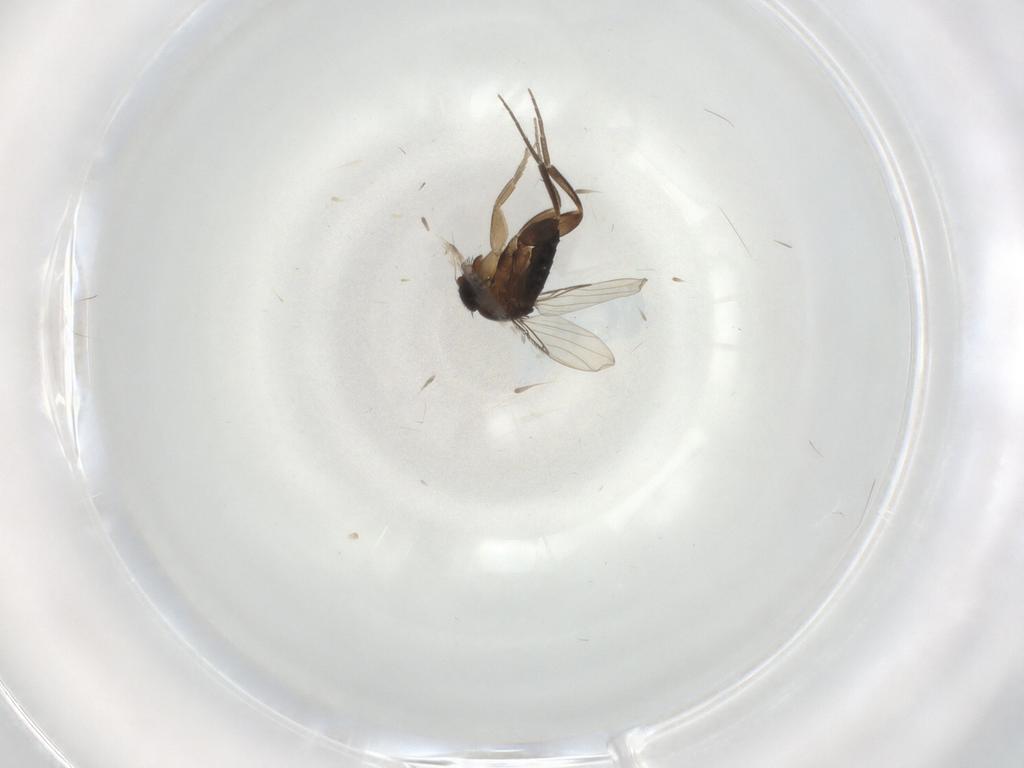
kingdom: Animalia
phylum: Arthropoda
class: Insecta
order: Diptera
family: Phoridae
